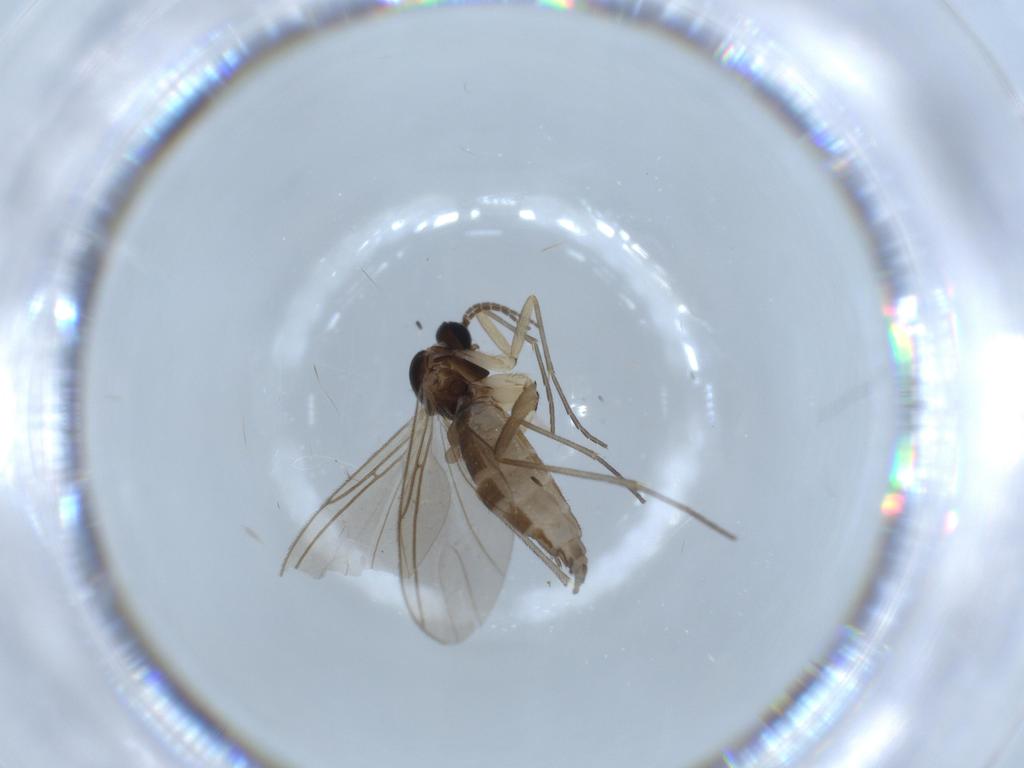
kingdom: Animalia
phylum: Arthropoda
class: Insecta
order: Diptera
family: Sciaridae
